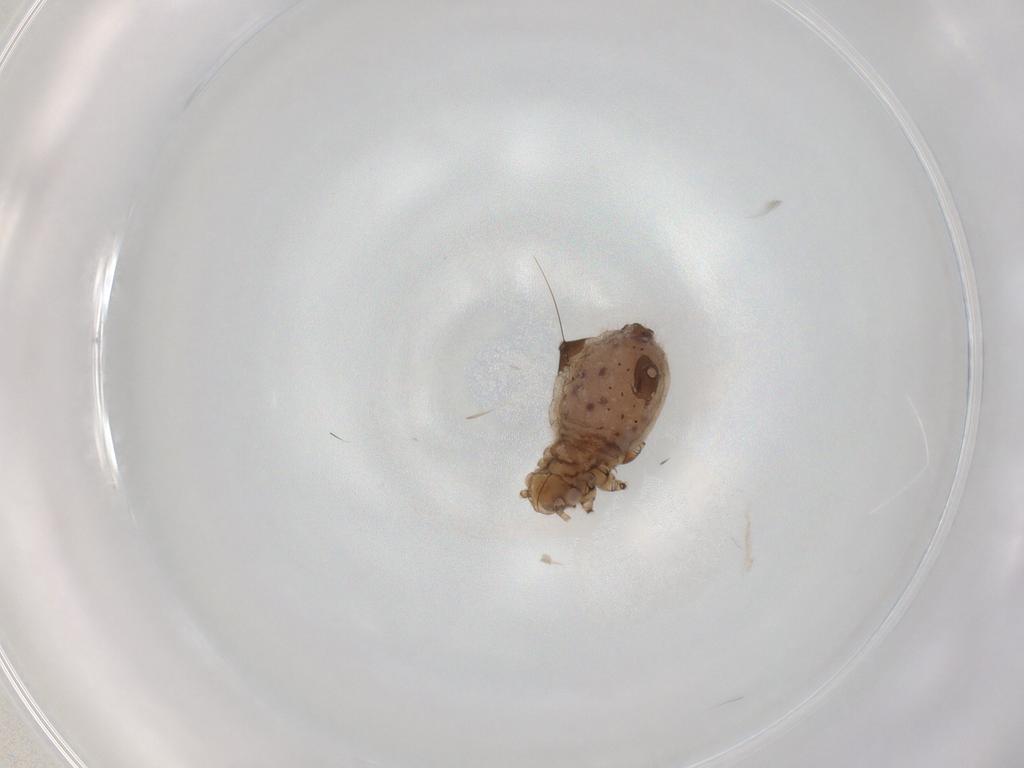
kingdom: Animalia
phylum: Arthropoda
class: Insecta
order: Hemiptera
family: Aphididae
